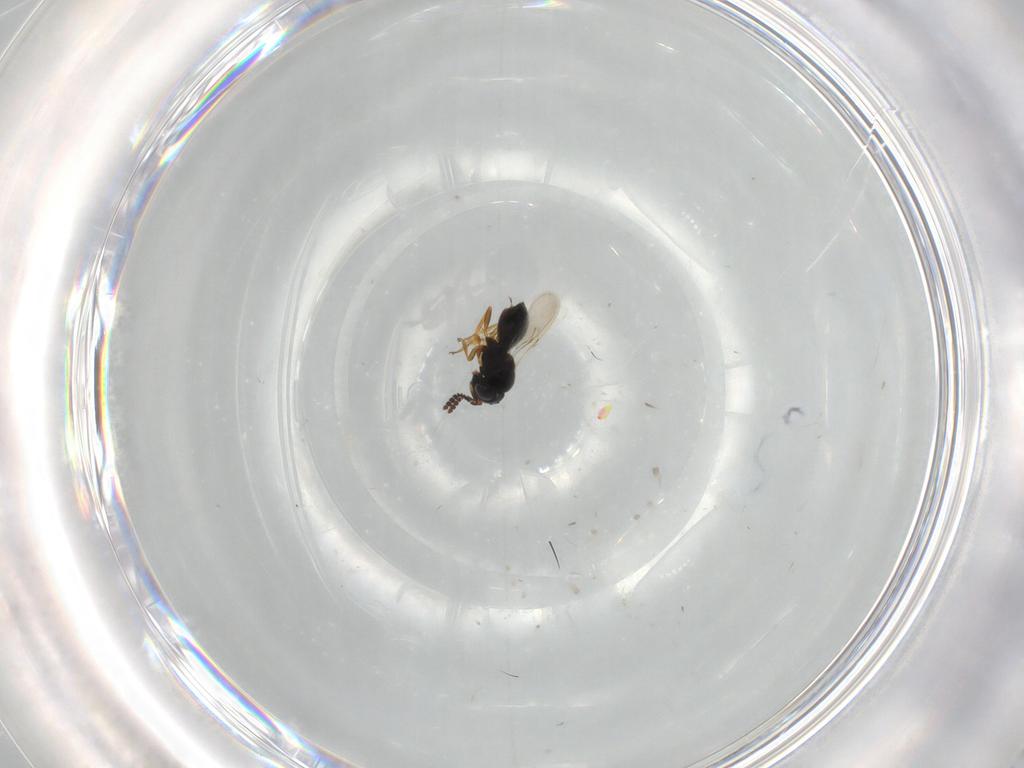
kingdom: Animalia
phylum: Arthropoda
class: Insecta
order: Hymenoptera
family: Scelionidae
